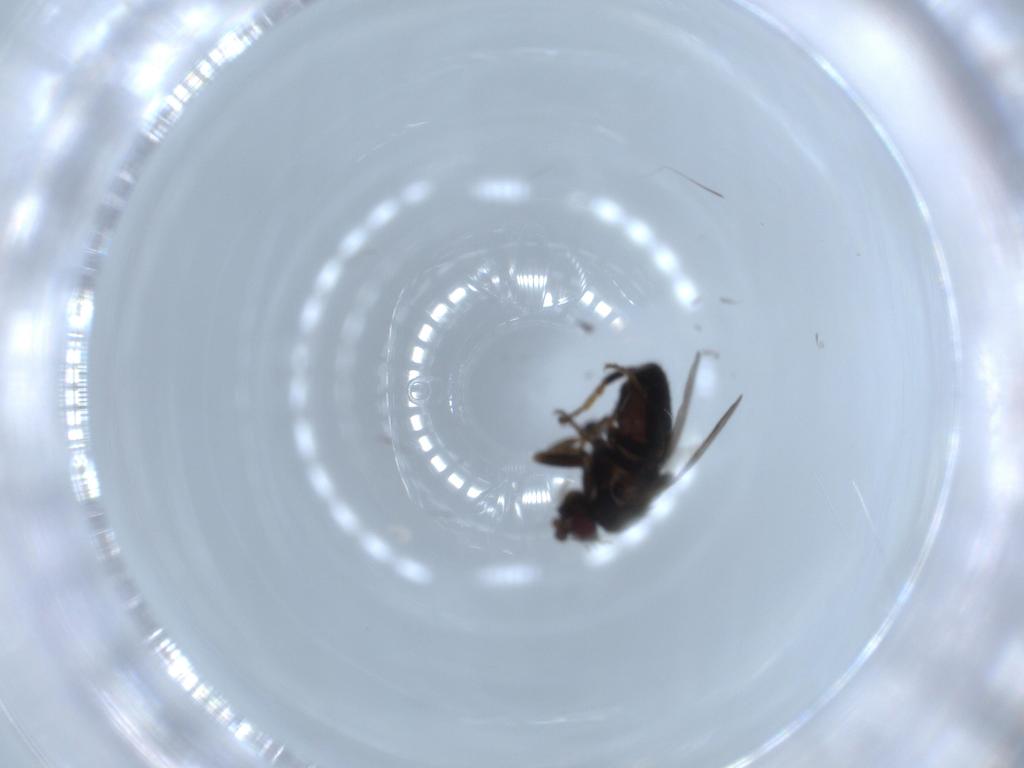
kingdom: Animalia
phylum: Arthropoda
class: Insecta
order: Diptera
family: Sphaeroceridae
